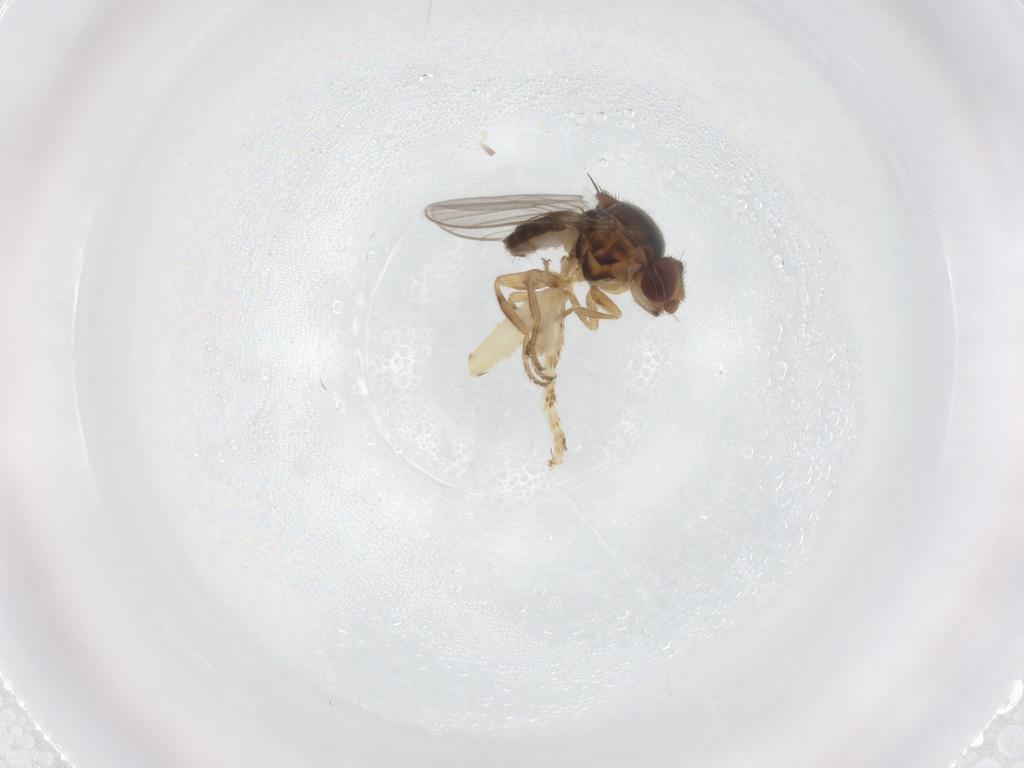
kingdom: Animalia
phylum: Arthropoda
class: Insecta
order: Diptera
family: Chloropidae
